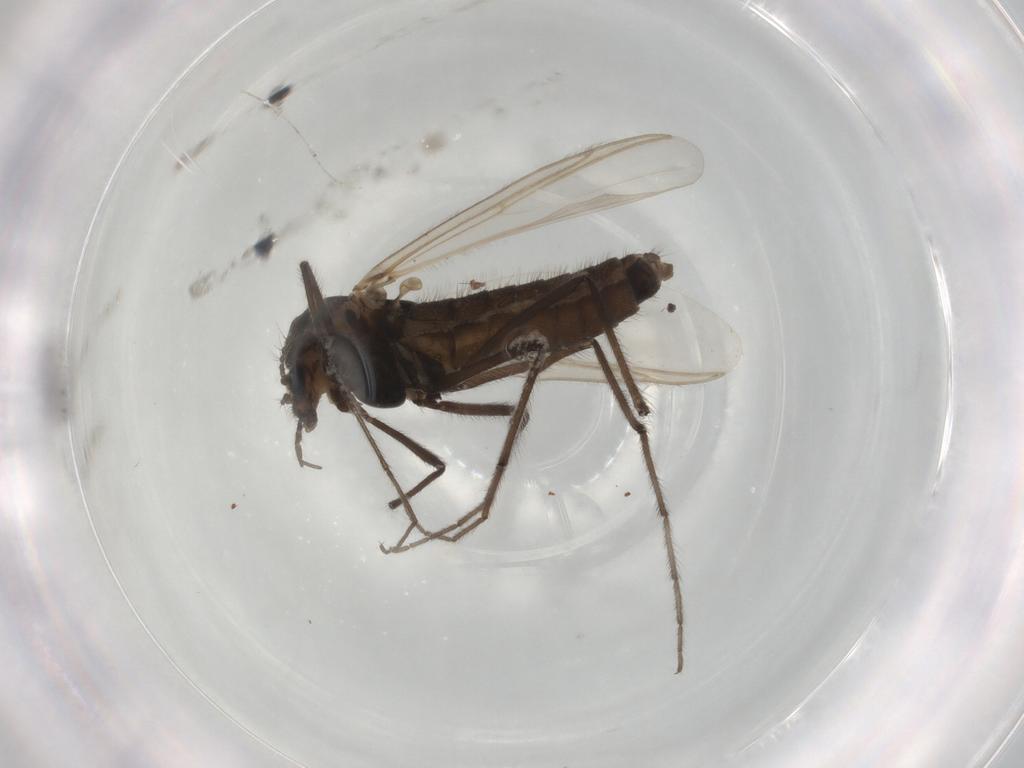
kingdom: Animalia
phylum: Arthropoda
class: Insecta
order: Diptera
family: Chironomidae
